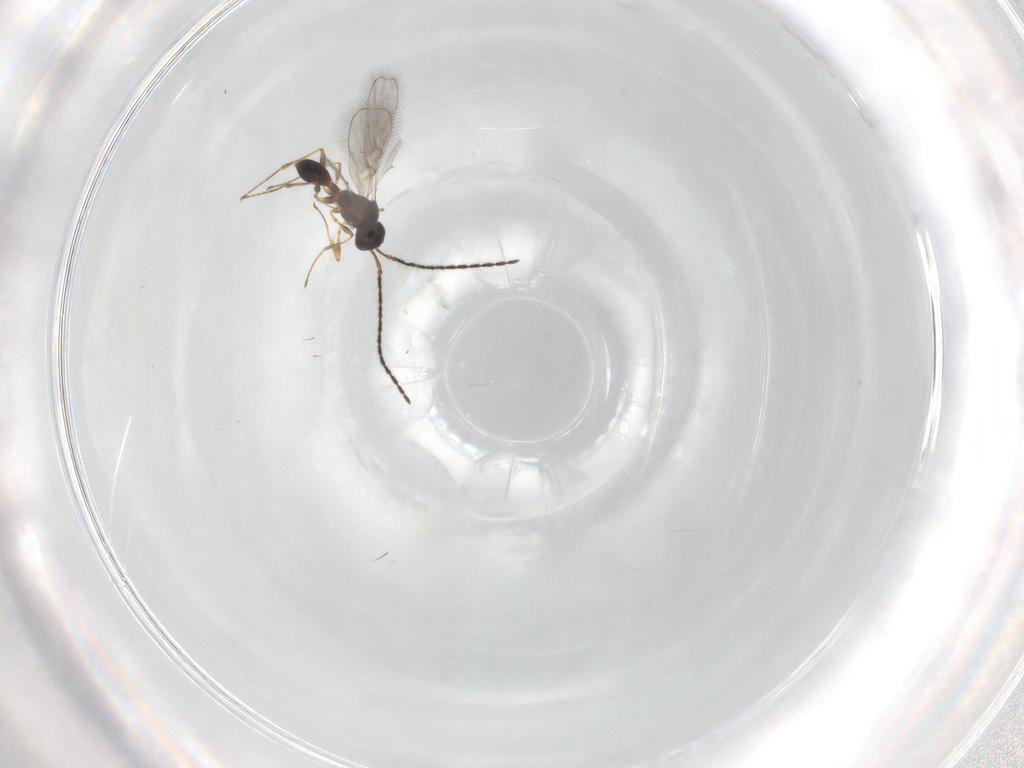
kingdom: Animalia
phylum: Arthropoda
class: Insecta
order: Hymenoptera
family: Diapriidae
